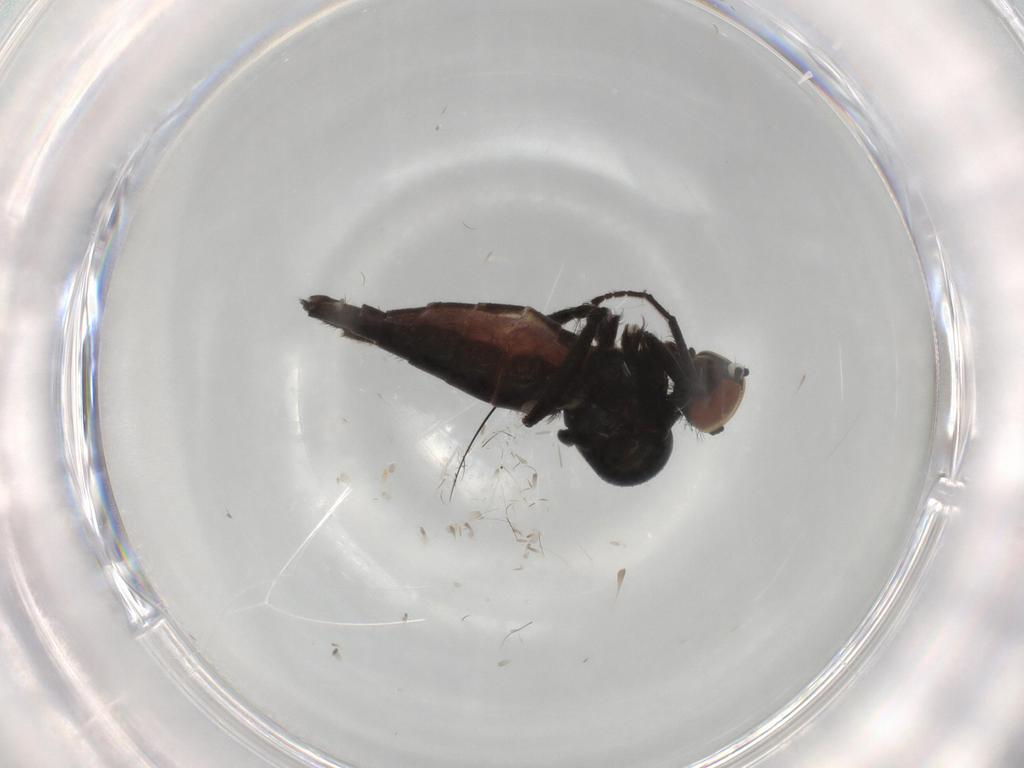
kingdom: Animalia
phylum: Arthropoda
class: Insecta
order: Diptera
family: Hybotidae
